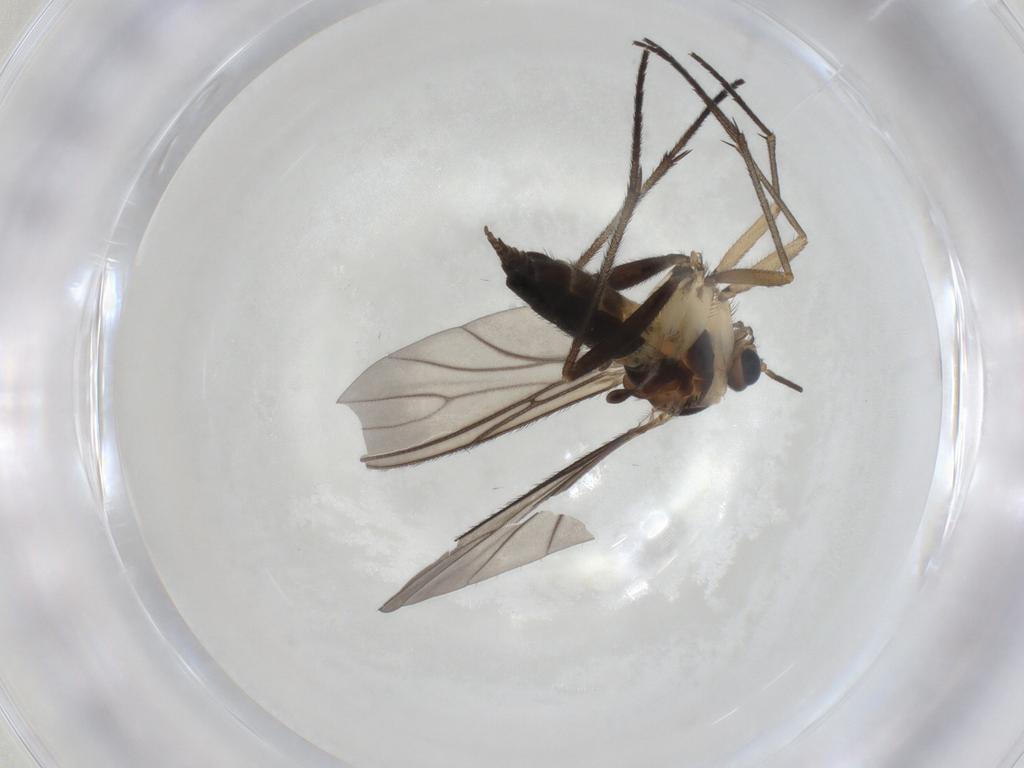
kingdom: Animalia
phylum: Arthropoda
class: Insecta
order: Diptera
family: Sciaridae
